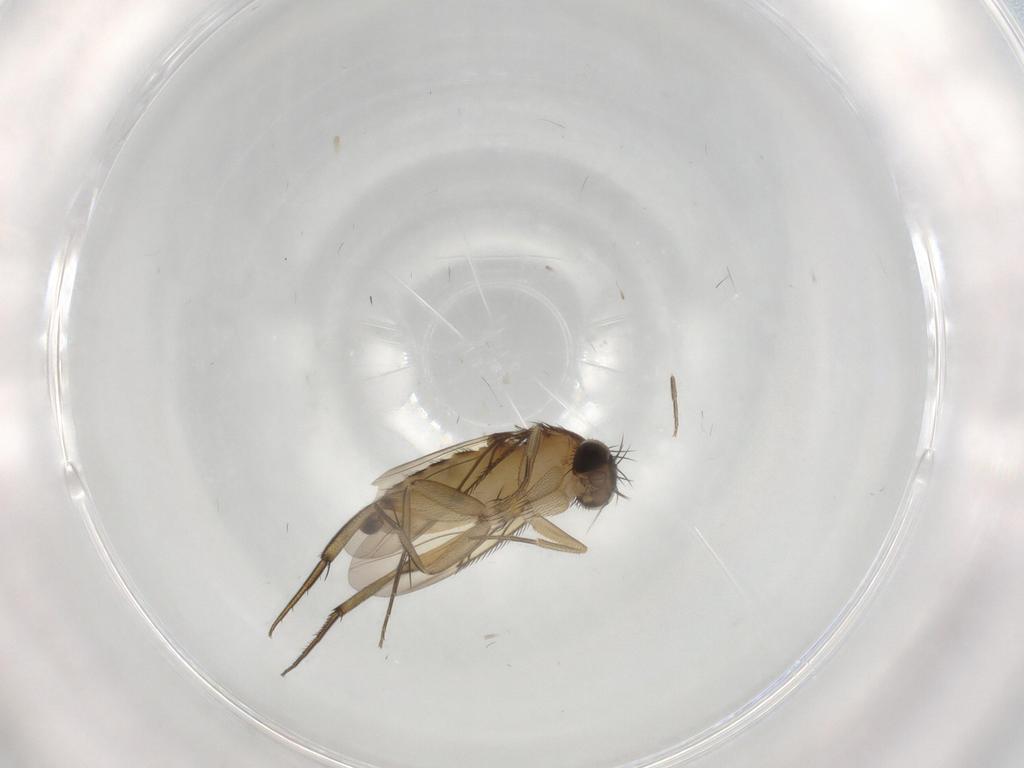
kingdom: Animalia
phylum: Arthropoda
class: Insecta
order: Diptera
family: Phoridae
